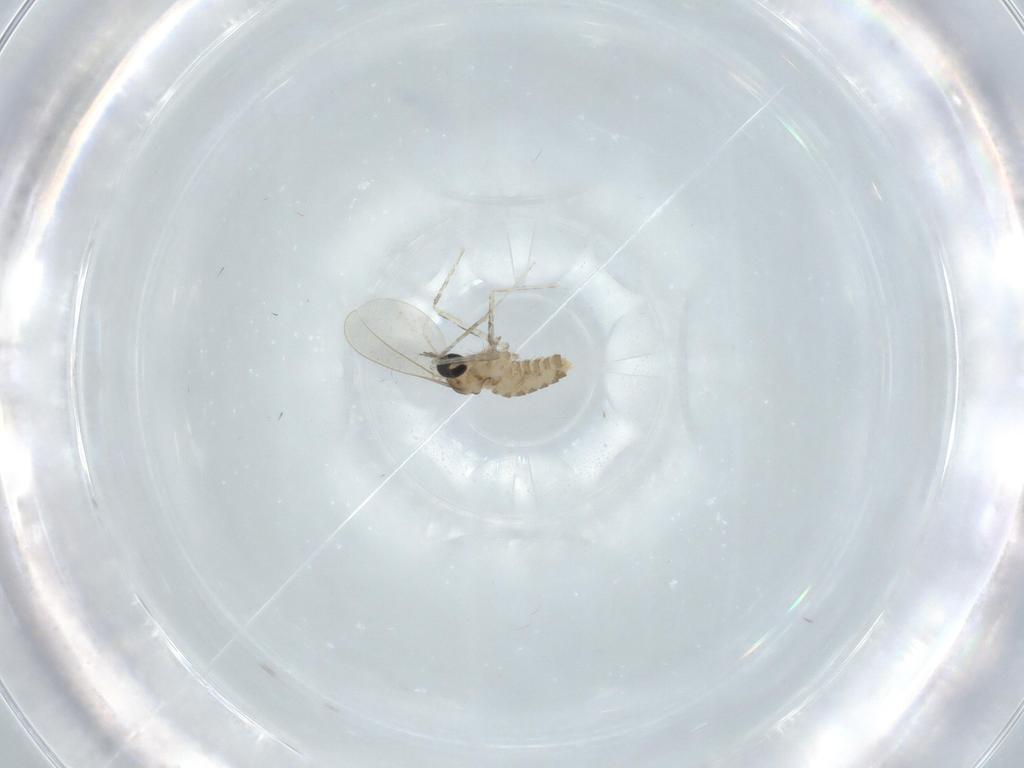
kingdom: Animalia
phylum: Arthropoda
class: Insecta
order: Diptera
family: Cecidomyiidae
